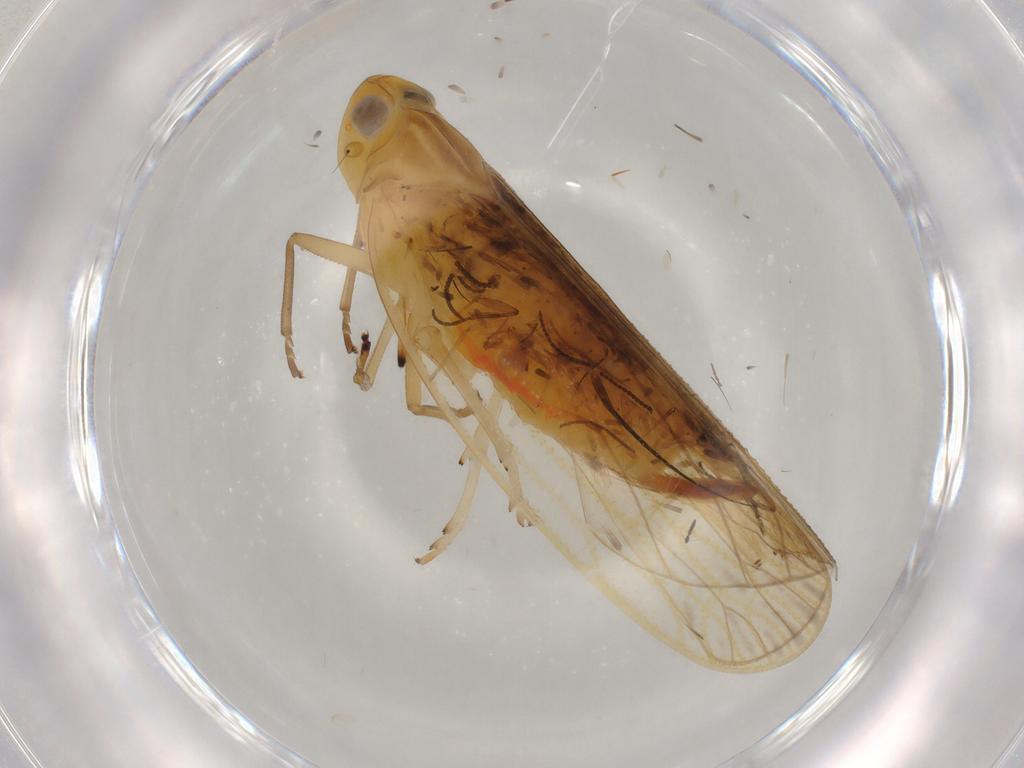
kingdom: Animalia
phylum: Arthropoda
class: Insecta
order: Hemiptera
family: Cixiidae
